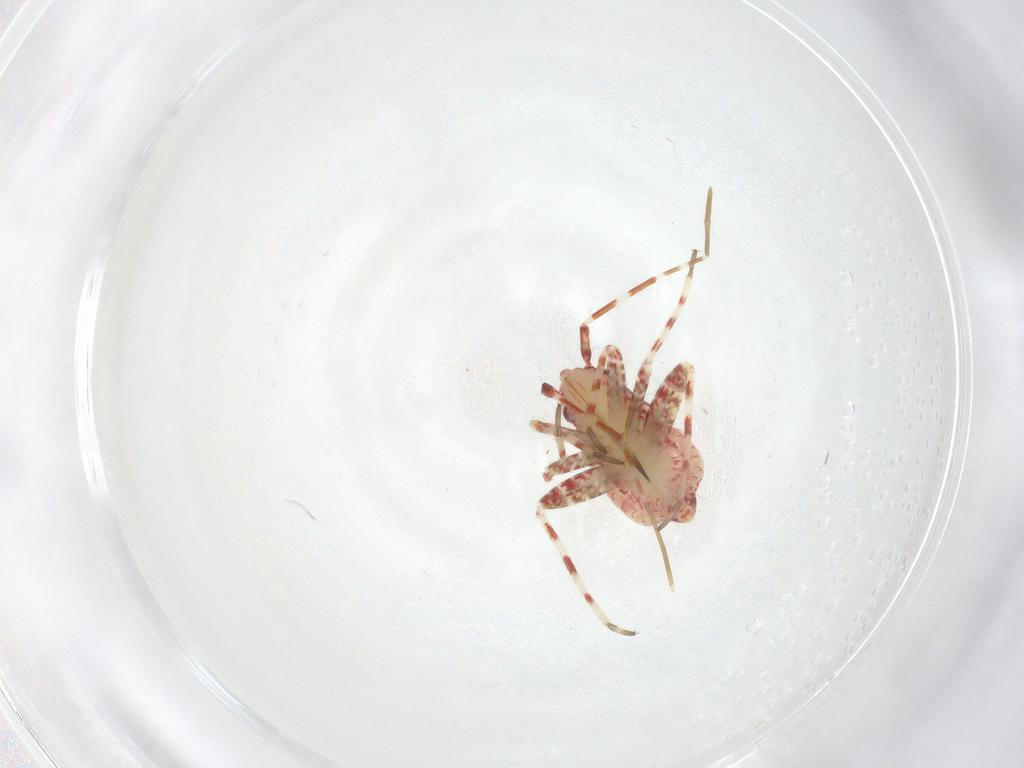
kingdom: Animalia
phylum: Arthropoda
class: Insecta
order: Hemiptera
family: Miridae
